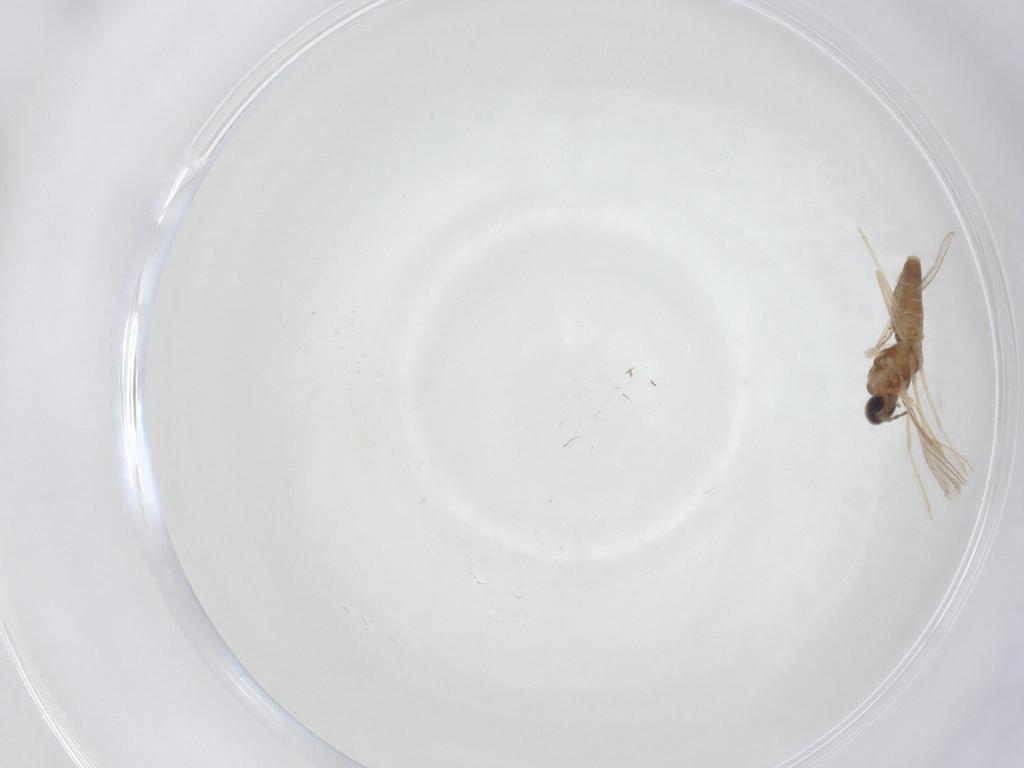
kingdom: Animalia
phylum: Arthropoda
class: Insecta
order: Diptera
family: Cecidomyiidae
